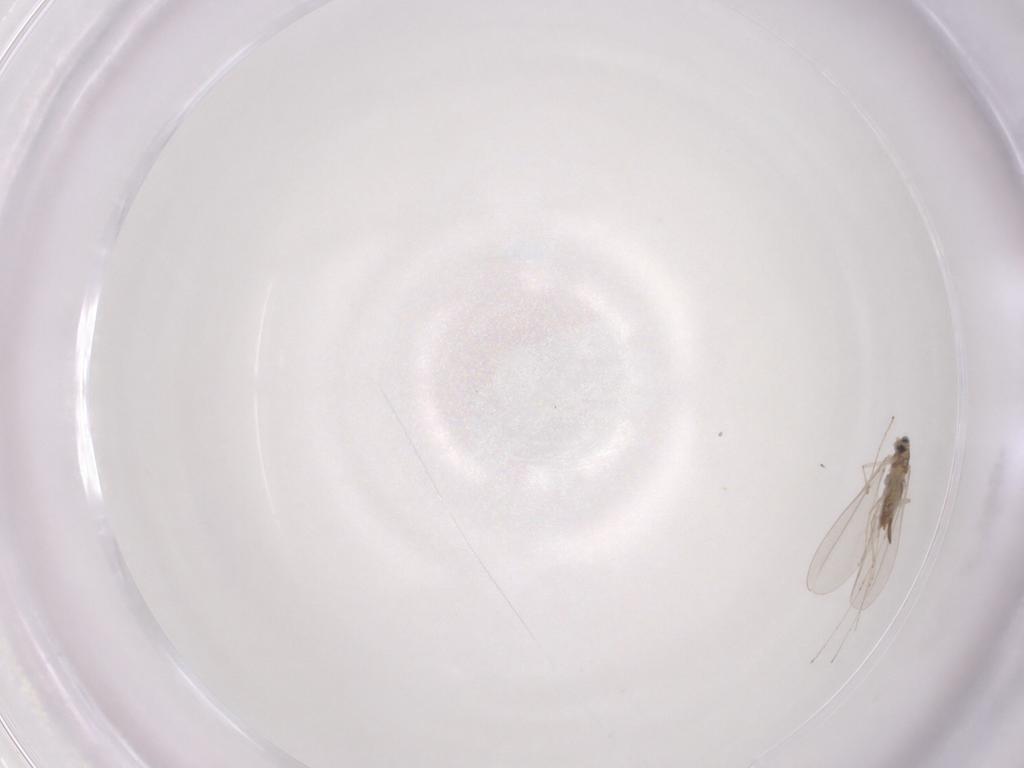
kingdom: Animalia
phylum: Arthropoda
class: Insecta
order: Diptera
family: Cecidomyiidae
